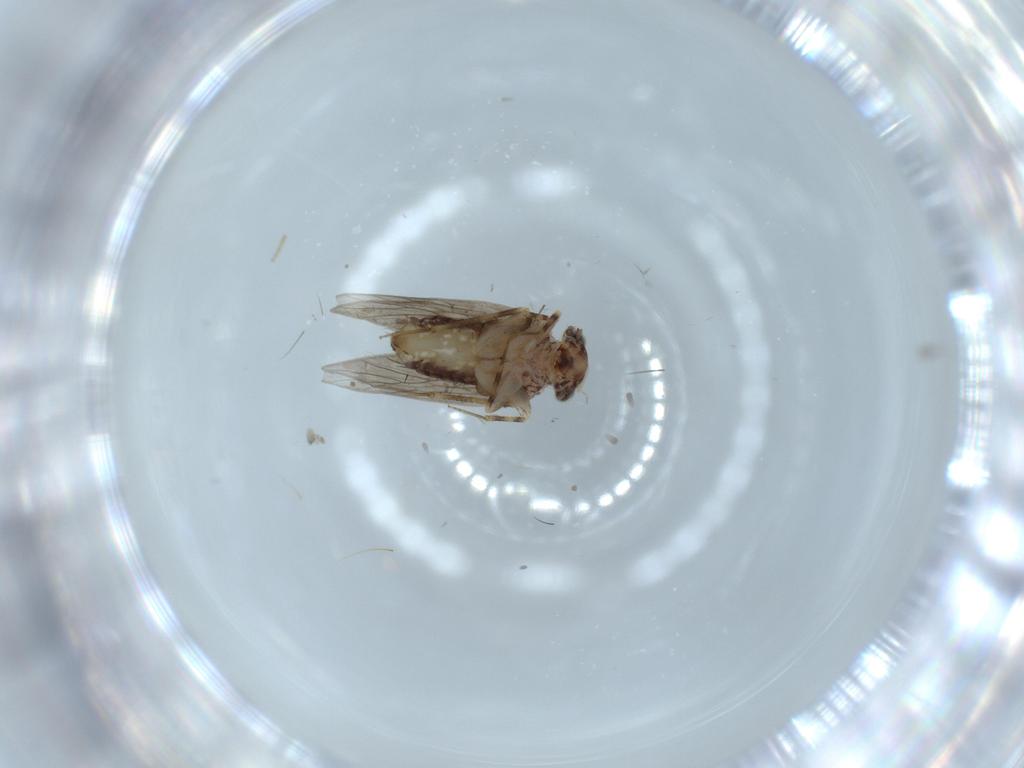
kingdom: Animalia
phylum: Arthropoda
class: Insecta
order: Psocodea
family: Lepidopsocidae
